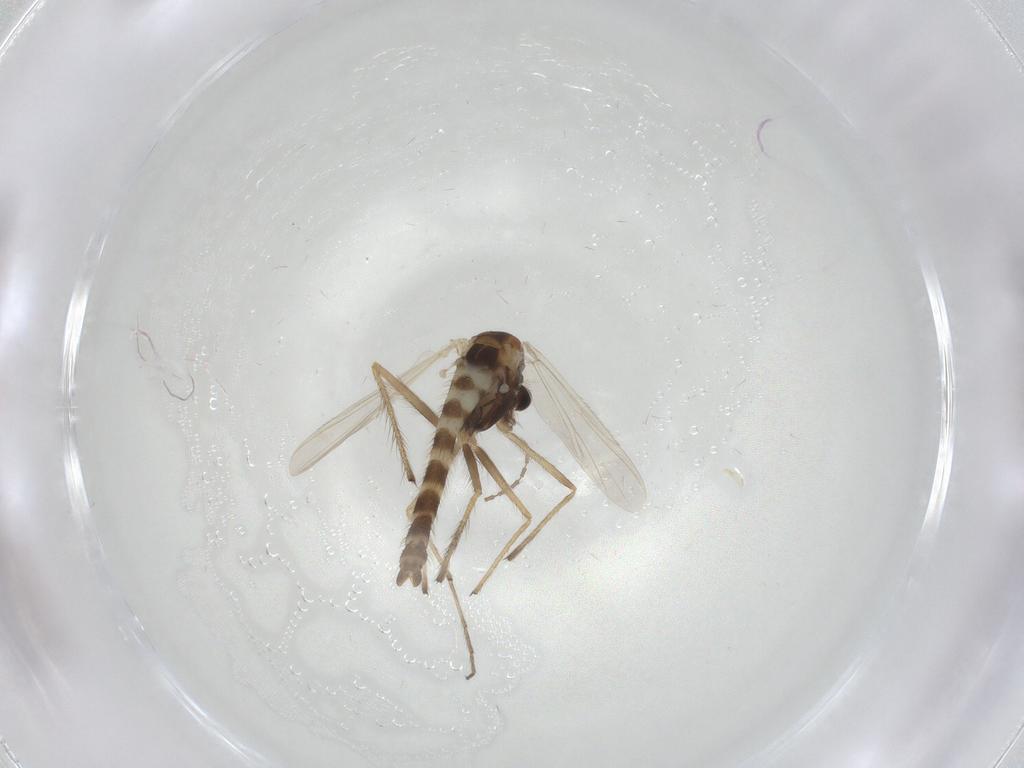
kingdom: Animalia
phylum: Arthropoda
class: Insecta
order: Diptera
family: Chironomidae
